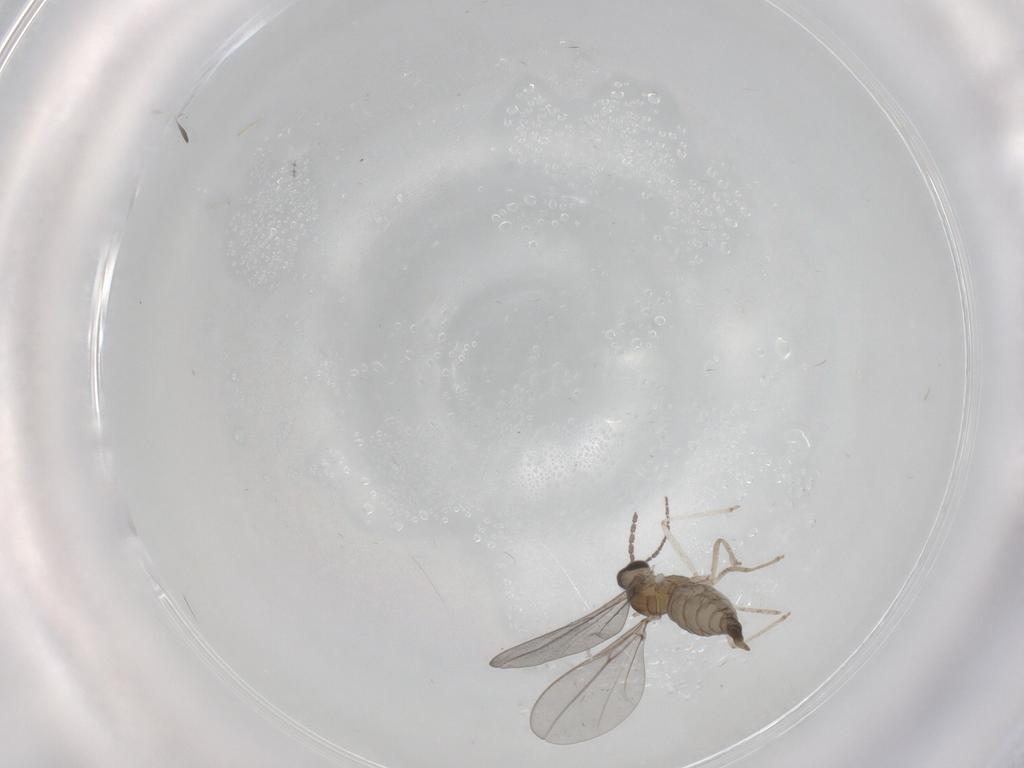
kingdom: Animalia
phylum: Arthropoda
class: Insecta
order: Diptera
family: Cecidomyiidae
